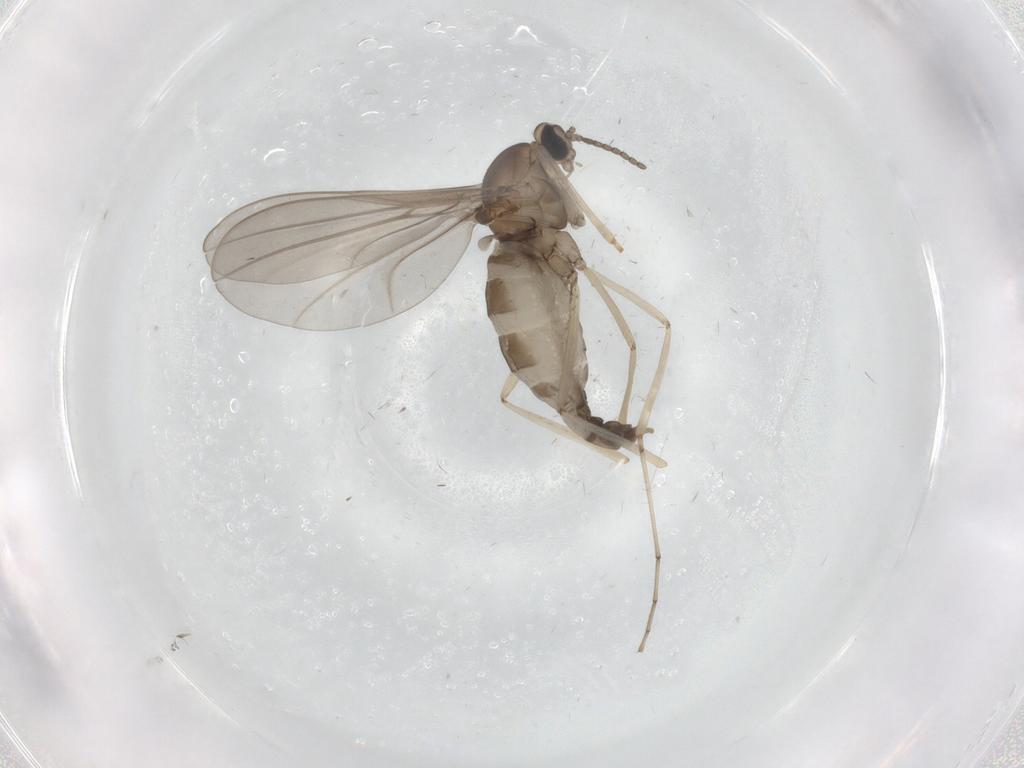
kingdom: Animalia
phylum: Arthropoda
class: Insecta
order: Diptera
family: Cecidomyiidae
